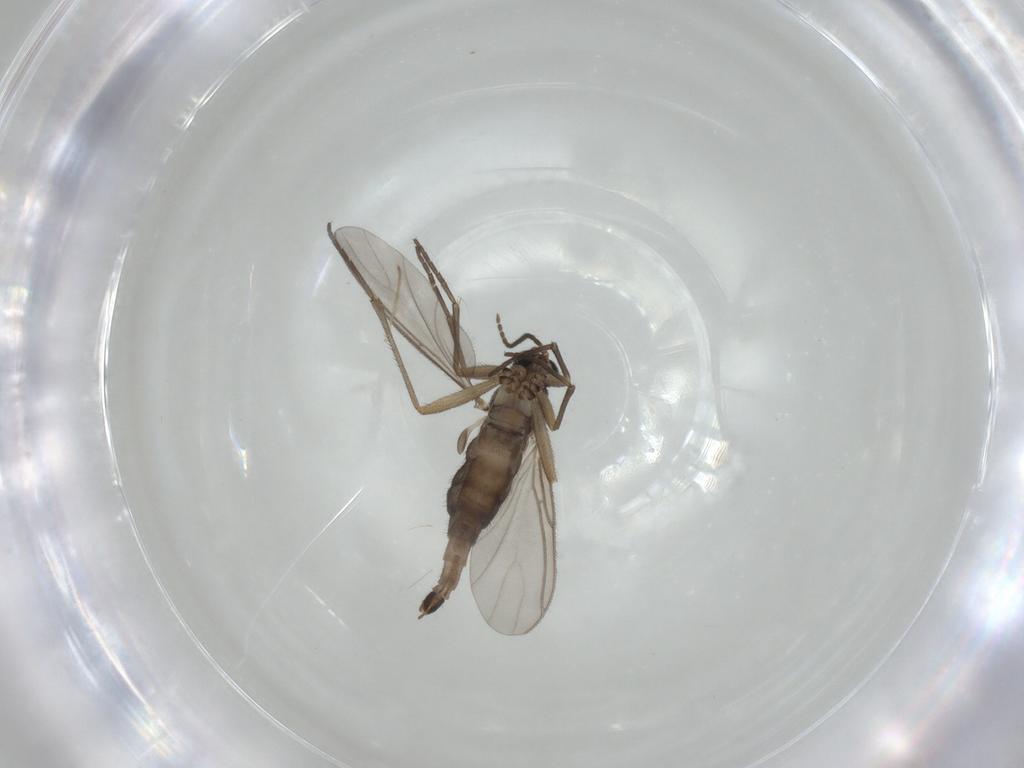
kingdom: Animalia
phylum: Arthropoda
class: Insecta
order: Diptera
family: Sciaridae
